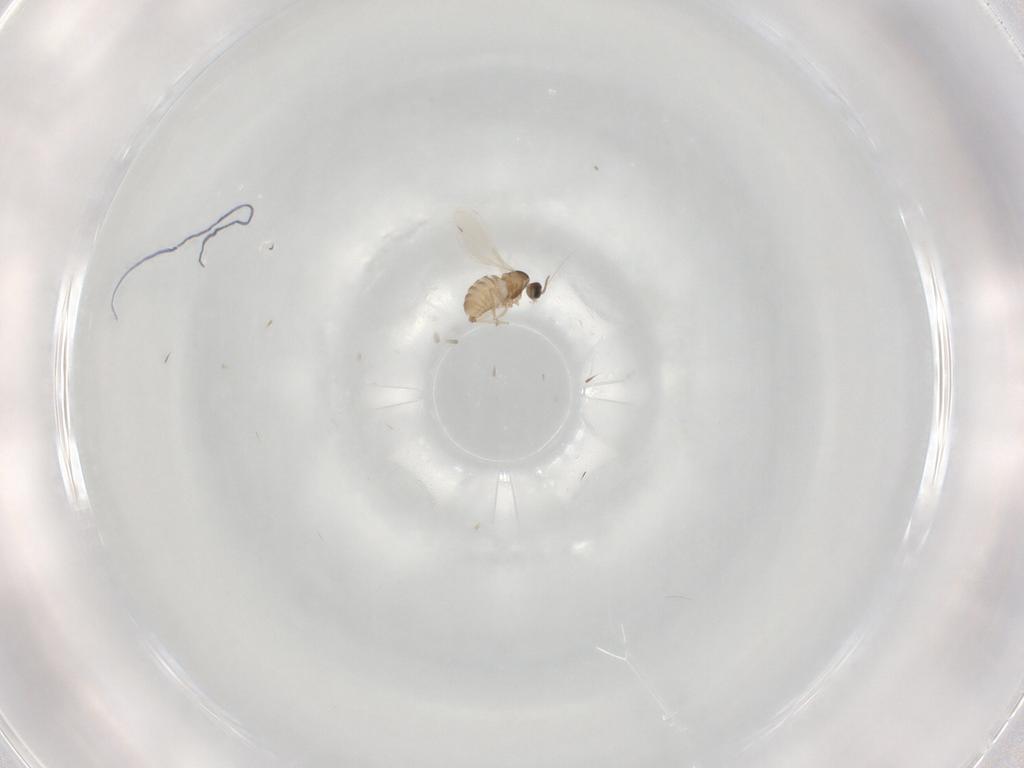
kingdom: Animalia
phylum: Arthropoda
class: Insecta
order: Diptera
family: Cecidomyiidae
